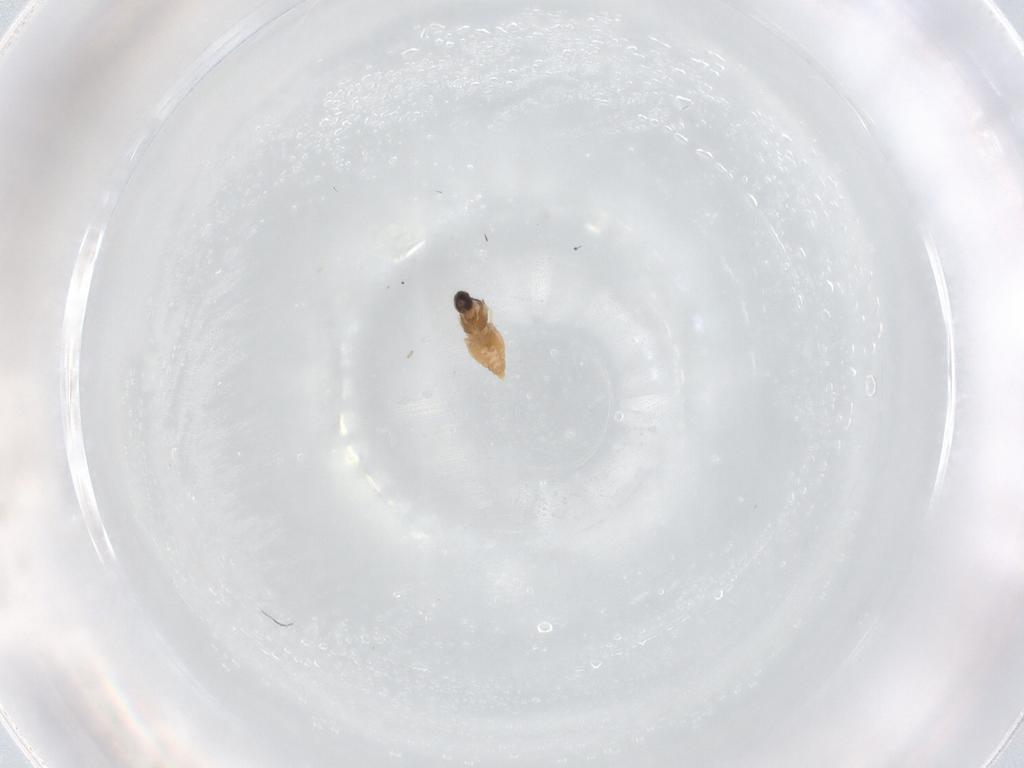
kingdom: Animalia
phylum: Arthropoda
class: Insecta
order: Diptera
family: Cecidomyiidae
